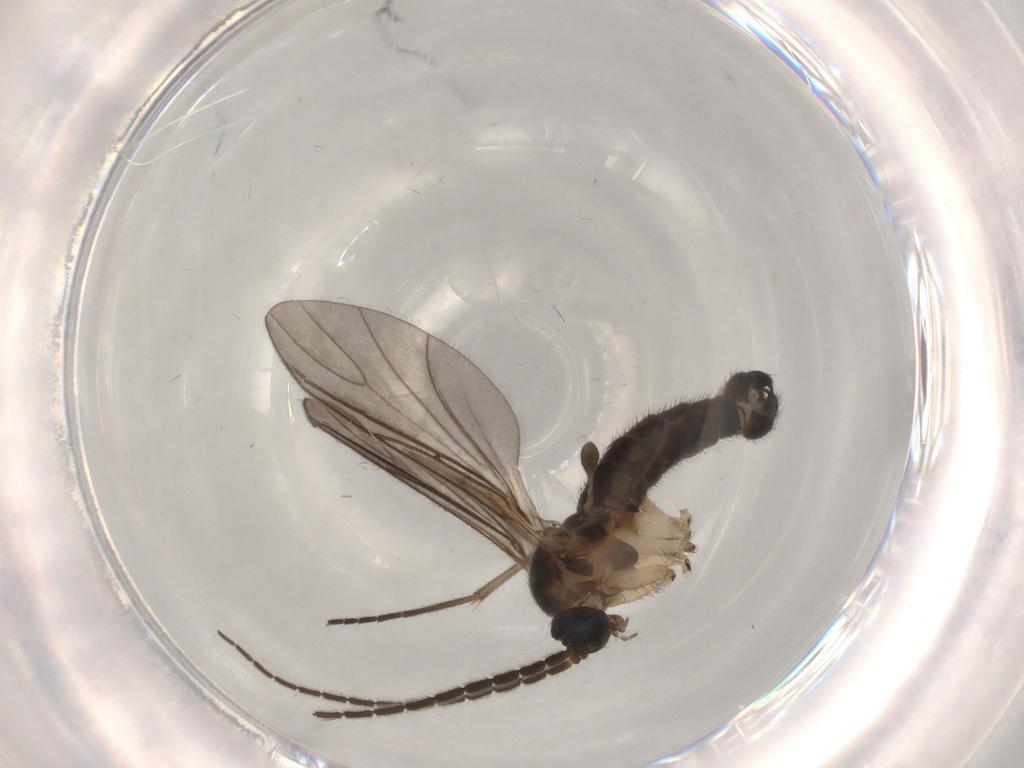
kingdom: Animalia
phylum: Arthropoda
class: Insecta
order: Diptera
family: Sciaridae
